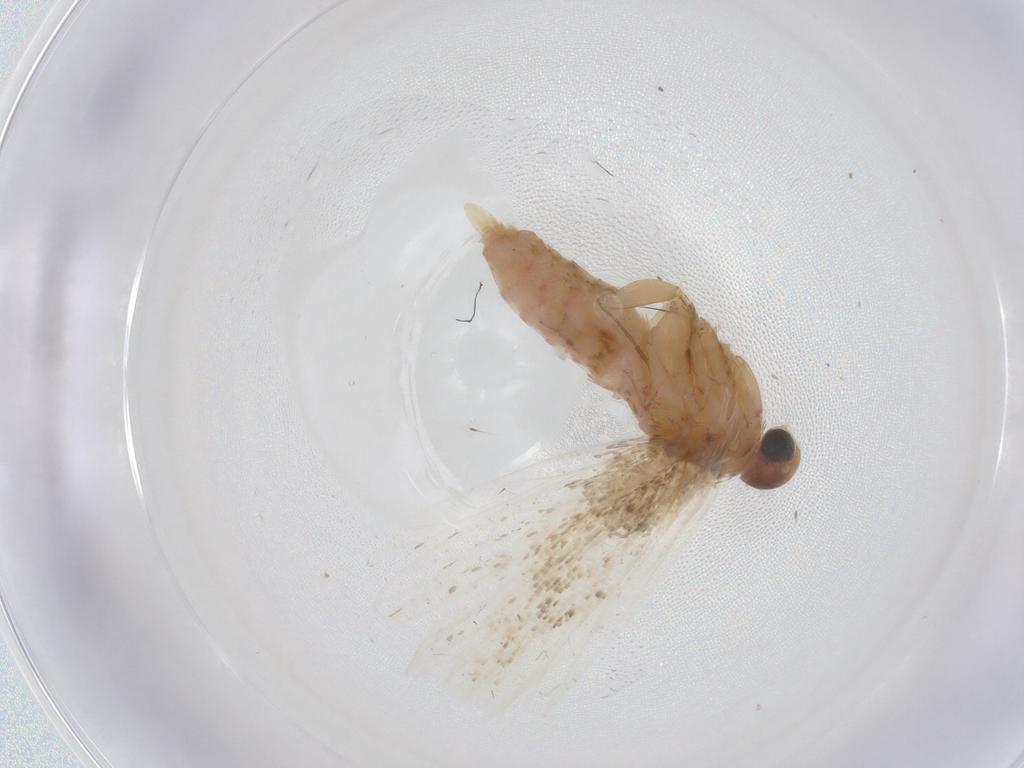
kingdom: Animalia
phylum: Arthropoda
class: Insecta
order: Lepidoptera
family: Gelechiidae
